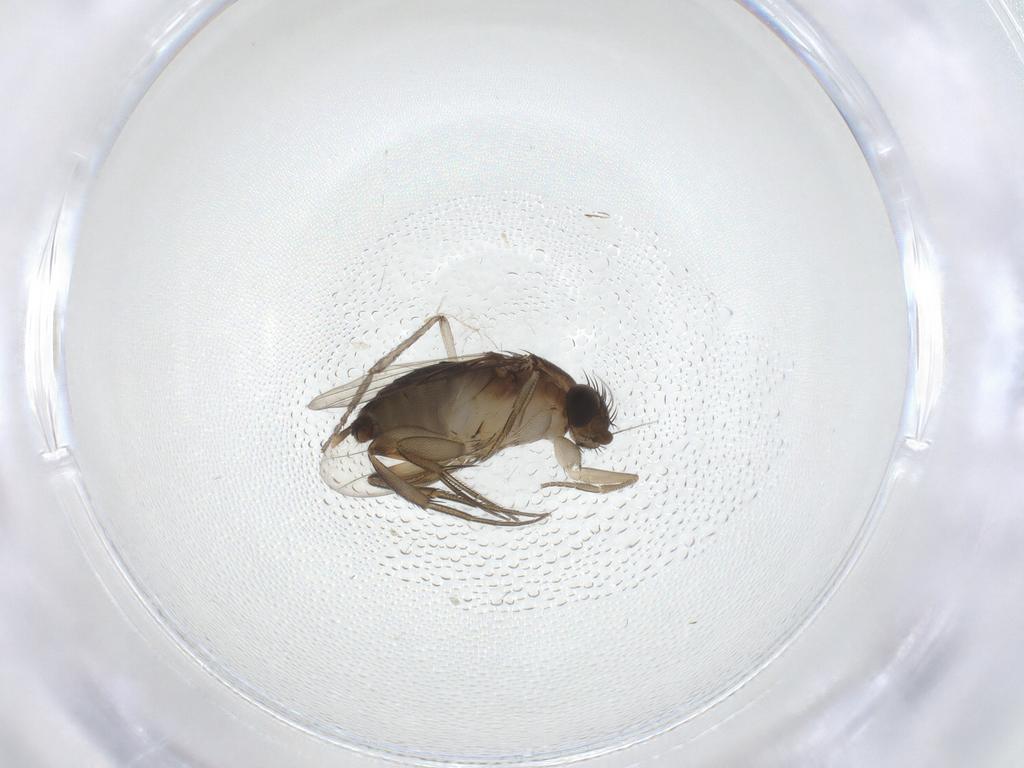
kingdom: Animalia
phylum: Arthropoda
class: Insecta
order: Diptera
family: Phoridae
